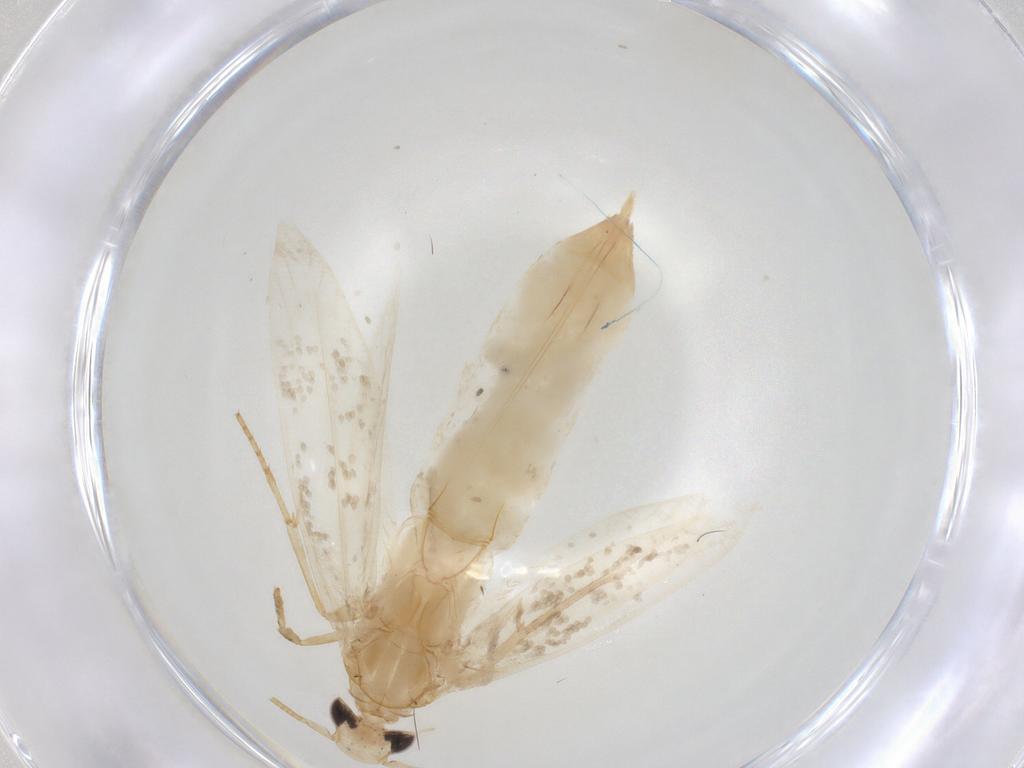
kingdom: Animalia
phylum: Arthropoda
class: Insecta
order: Lepidoptera
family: Tineidae
